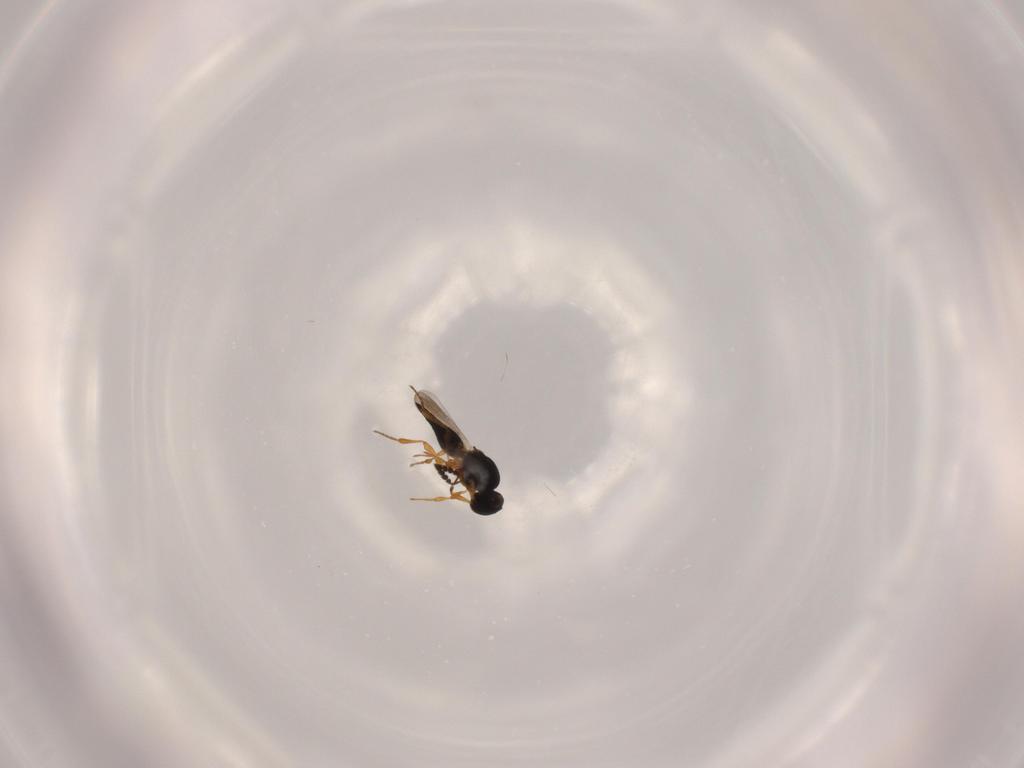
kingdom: Animalia
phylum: Arthropoda
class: Insecta
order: Hymenoptera
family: Platygastridae
